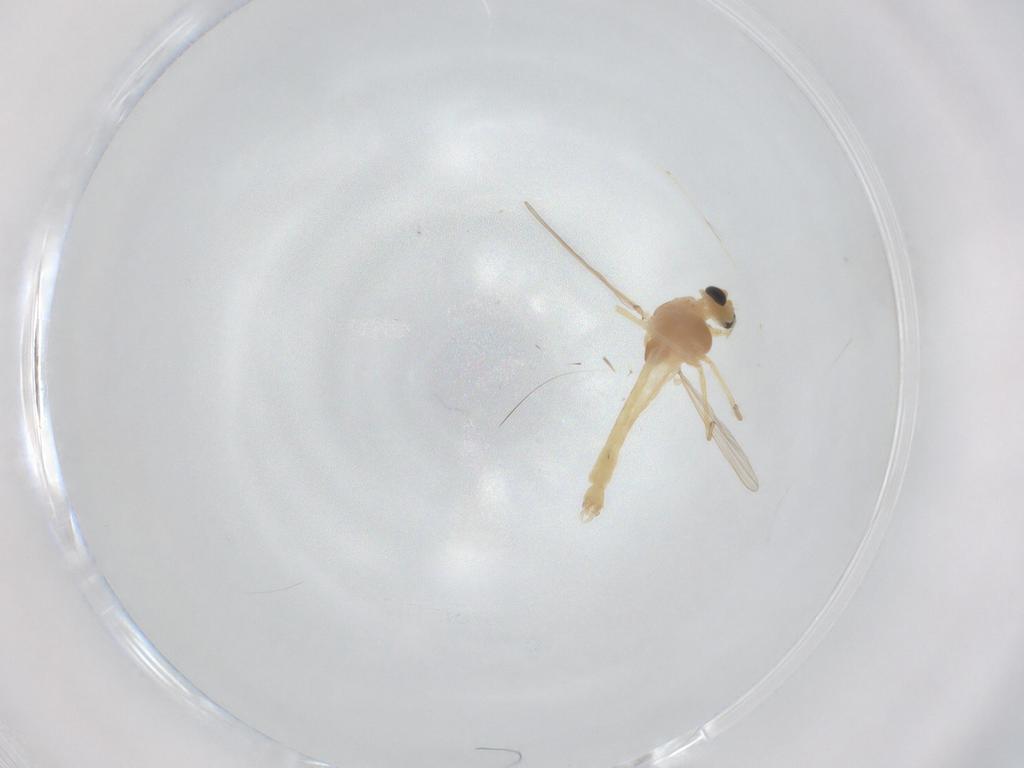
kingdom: Animalia
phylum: Arthropoda
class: Insecta
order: Diptera
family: Chironomidae
